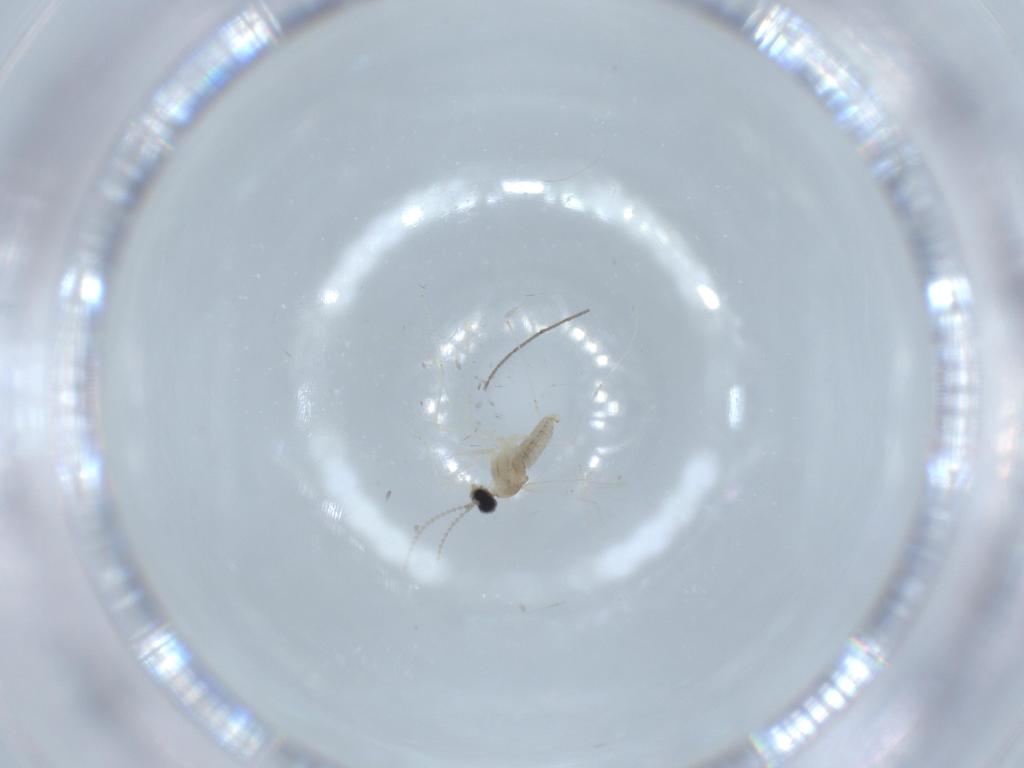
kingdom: Animalia
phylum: Arthropoda
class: Insecta
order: Diptera
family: Cecidomyiidae
